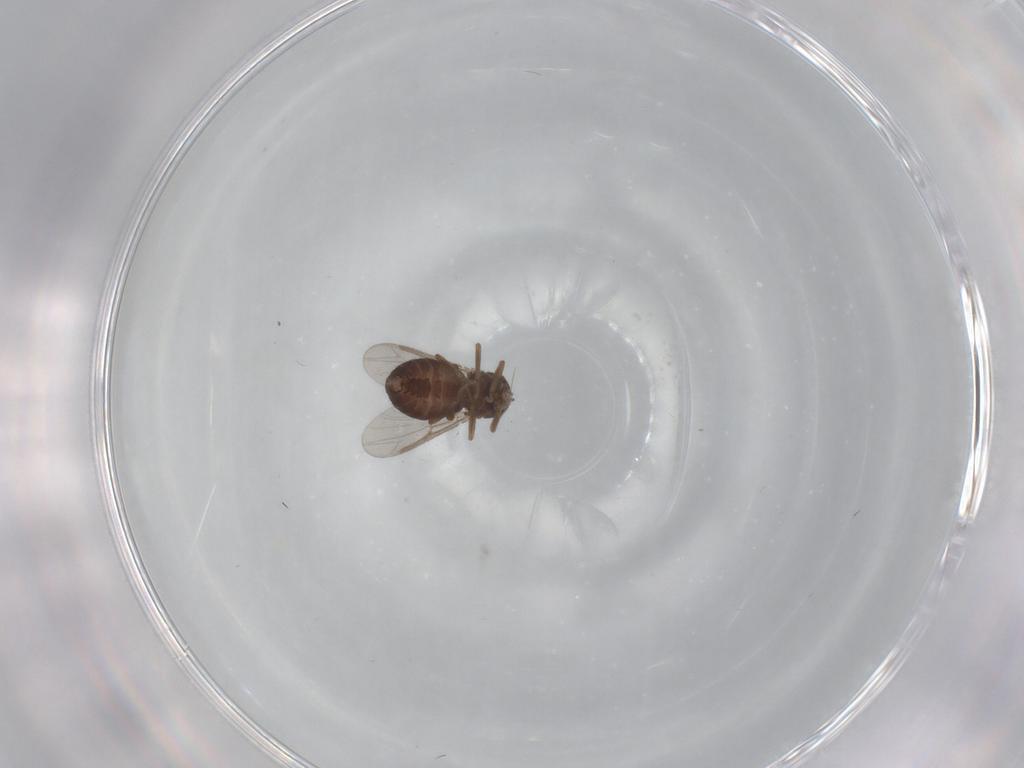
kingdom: Animalia
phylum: Arthropoda
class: Insecta
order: Diptera
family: Ceratopogonidae
